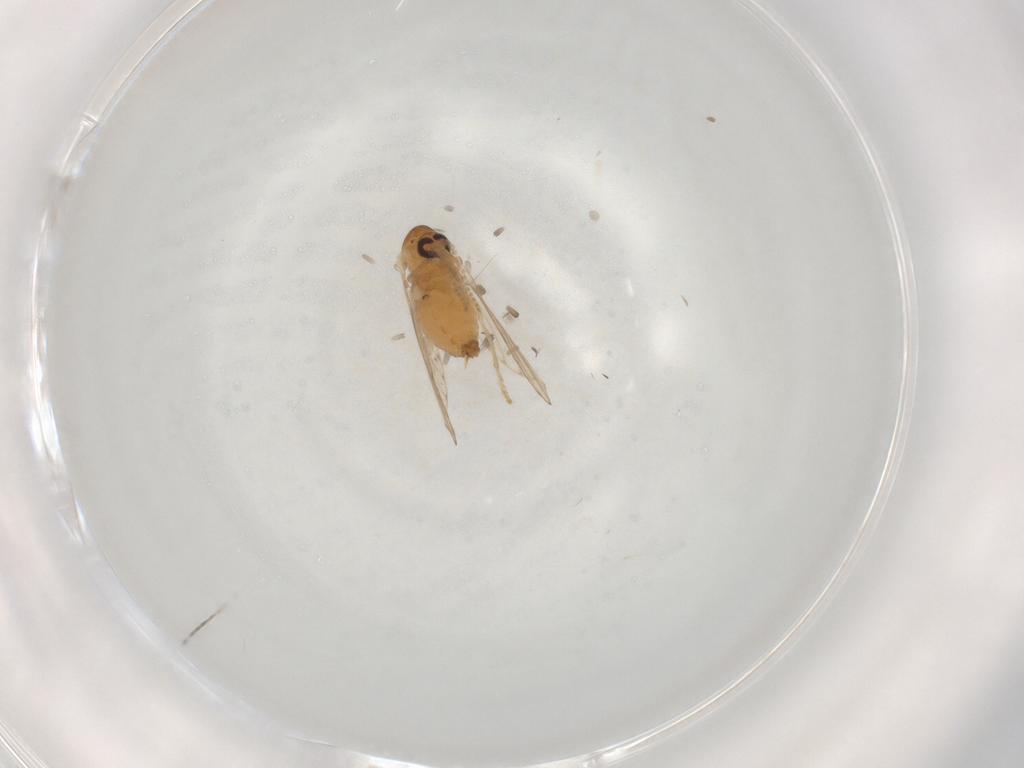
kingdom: Animalia
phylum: Arthropoda
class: Insecta
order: Diptera
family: Psychodidae
